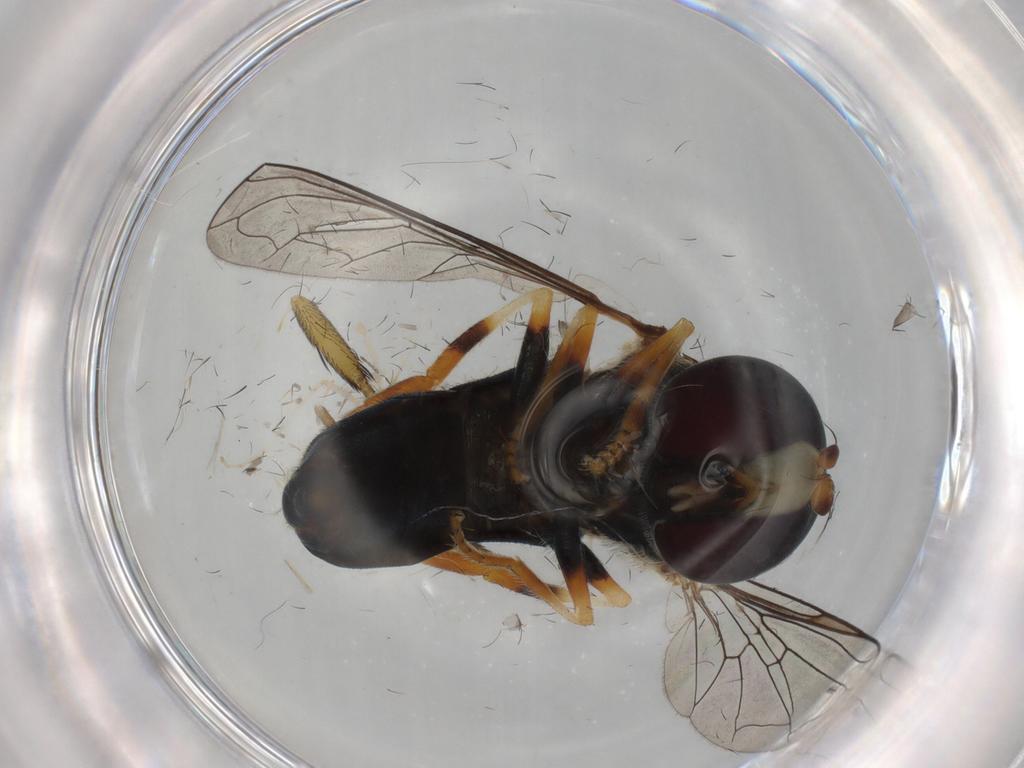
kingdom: Animalia
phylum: Arthropoda
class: Insecta
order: Diptera
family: Syrphidae
